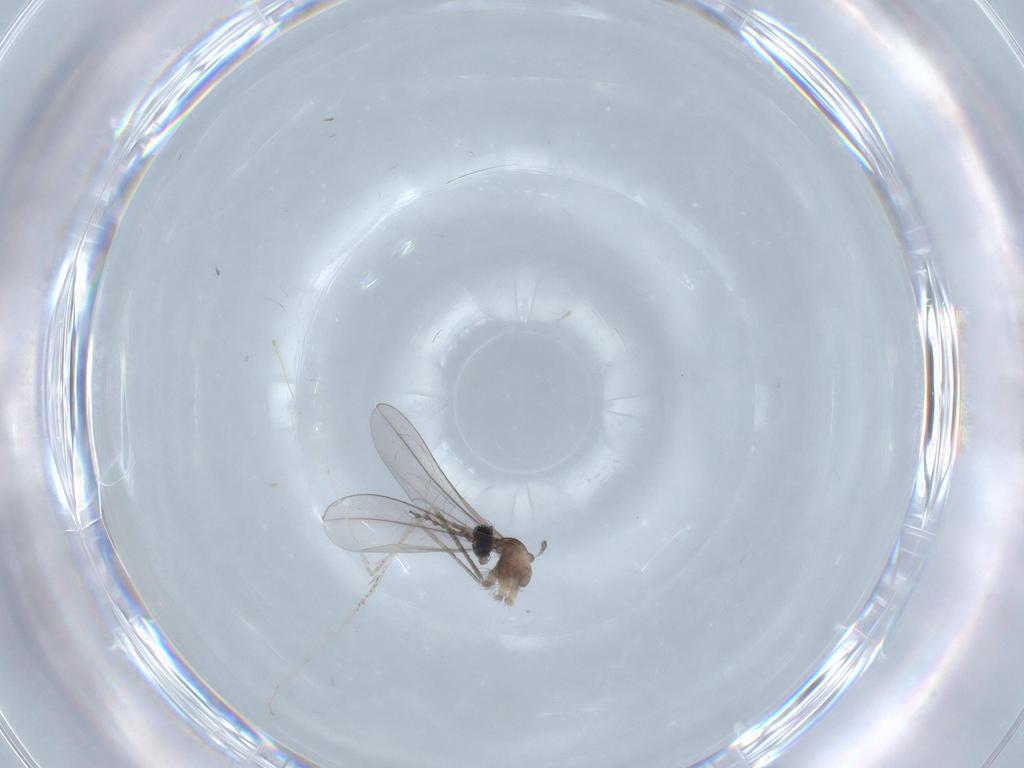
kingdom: Animalia
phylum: Arthropoda
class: Insecta
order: Diptera
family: Cecidomyiidae
